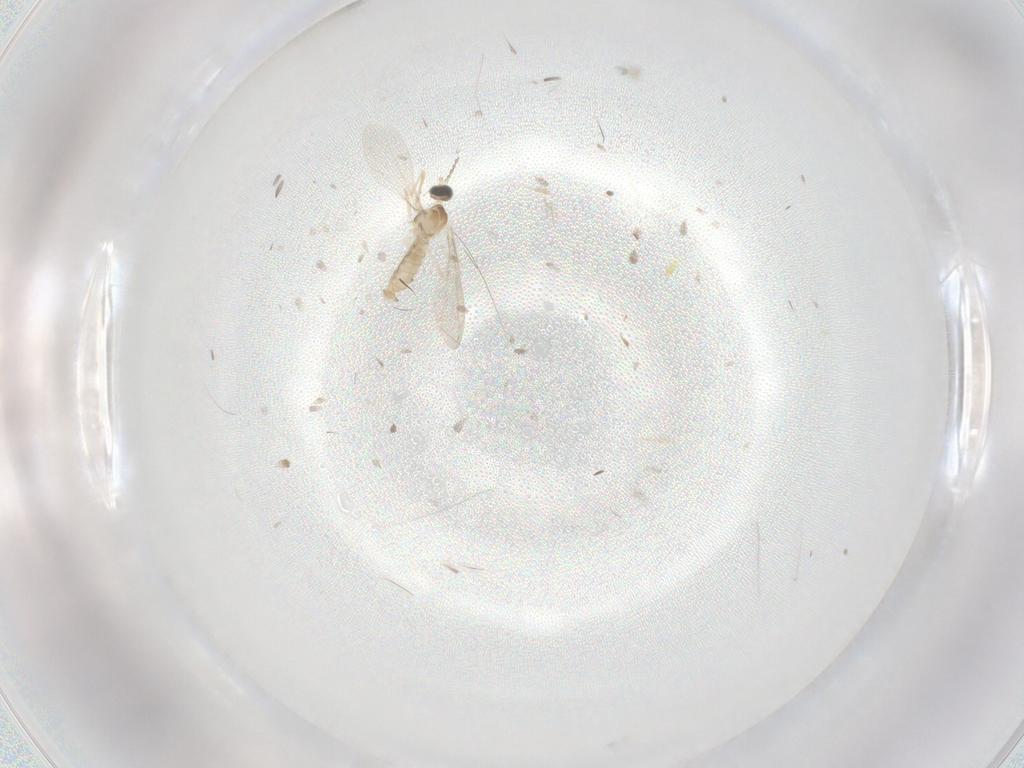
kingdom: Animalia
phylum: Arthropoda
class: Insecta
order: Diptera
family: Cecidomyiidae
